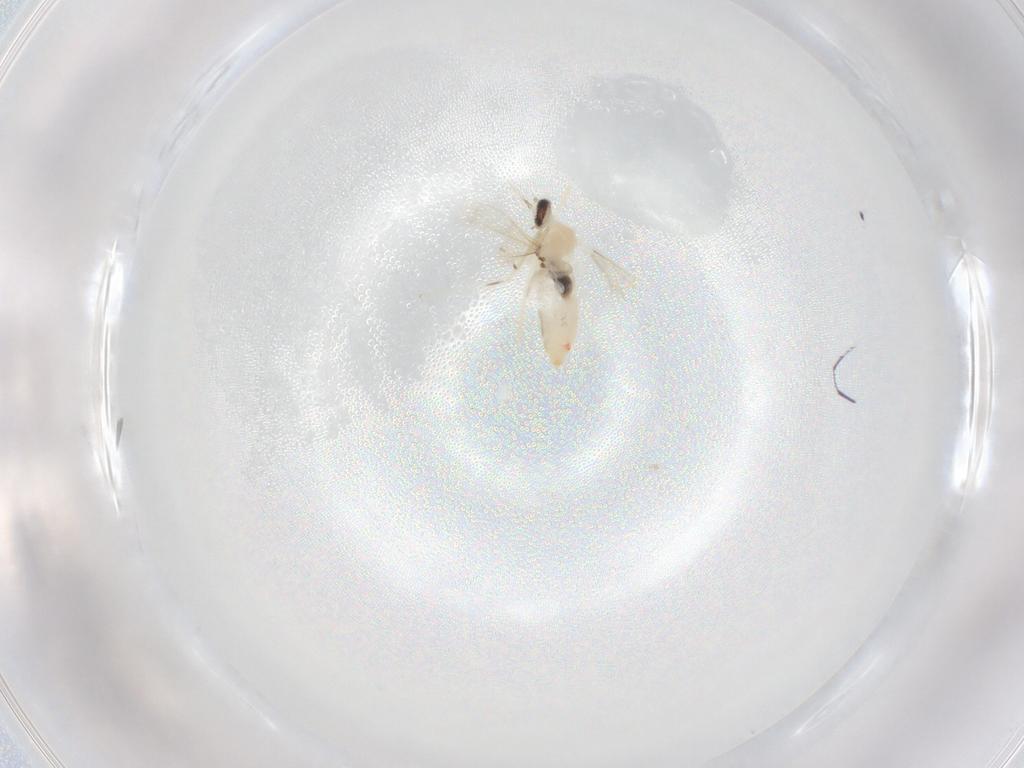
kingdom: Animalia
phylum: Arthropoda
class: Insecta
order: Diptera
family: Cecidomyiidae
